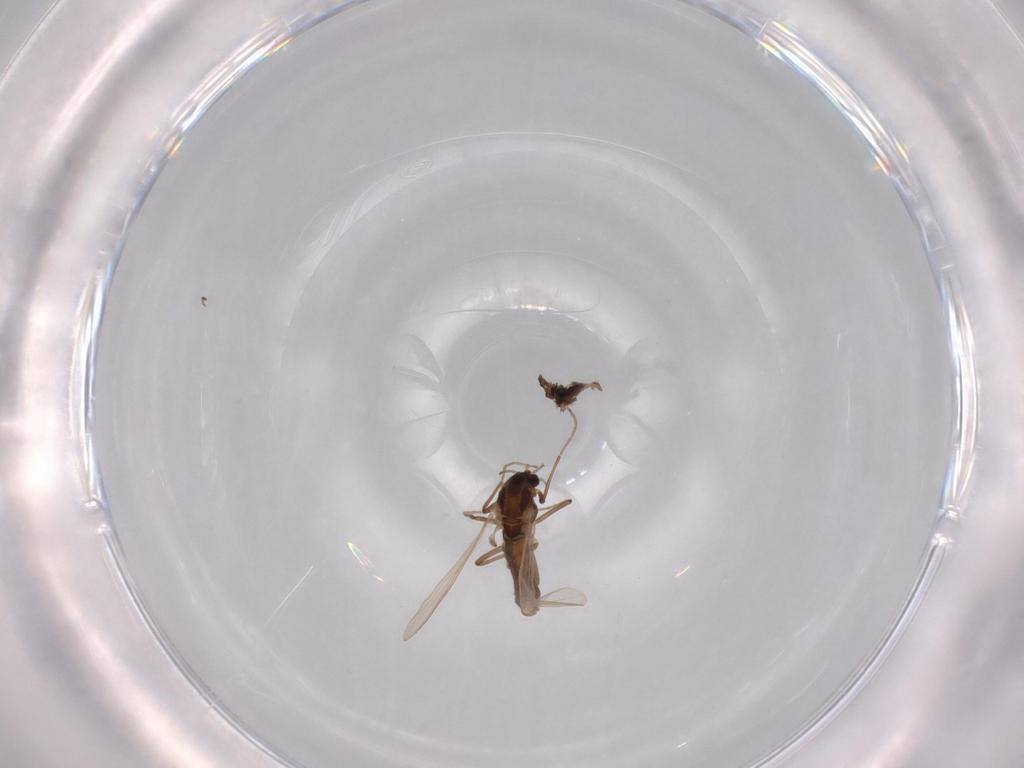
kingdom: Animalia
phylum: Arthropoda
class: Insecta
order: Diptera
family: Chironomidae
